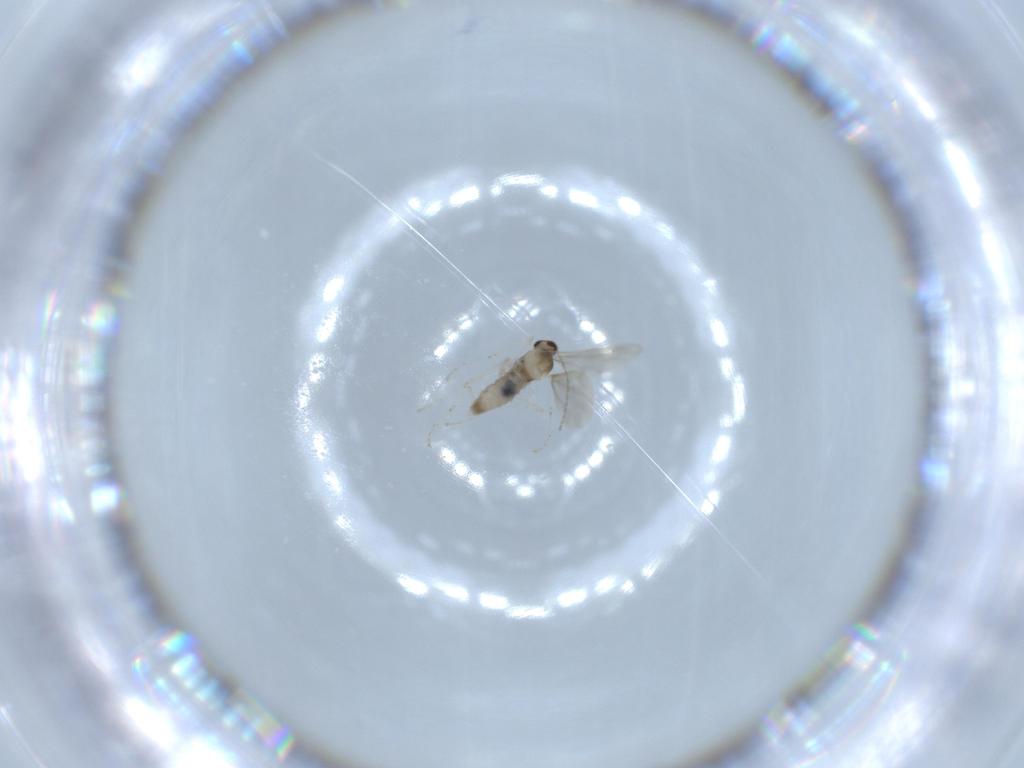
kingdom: Animalia
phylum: Arthropoda
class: Insecta
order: Diptera
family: Cecidomyiidae
